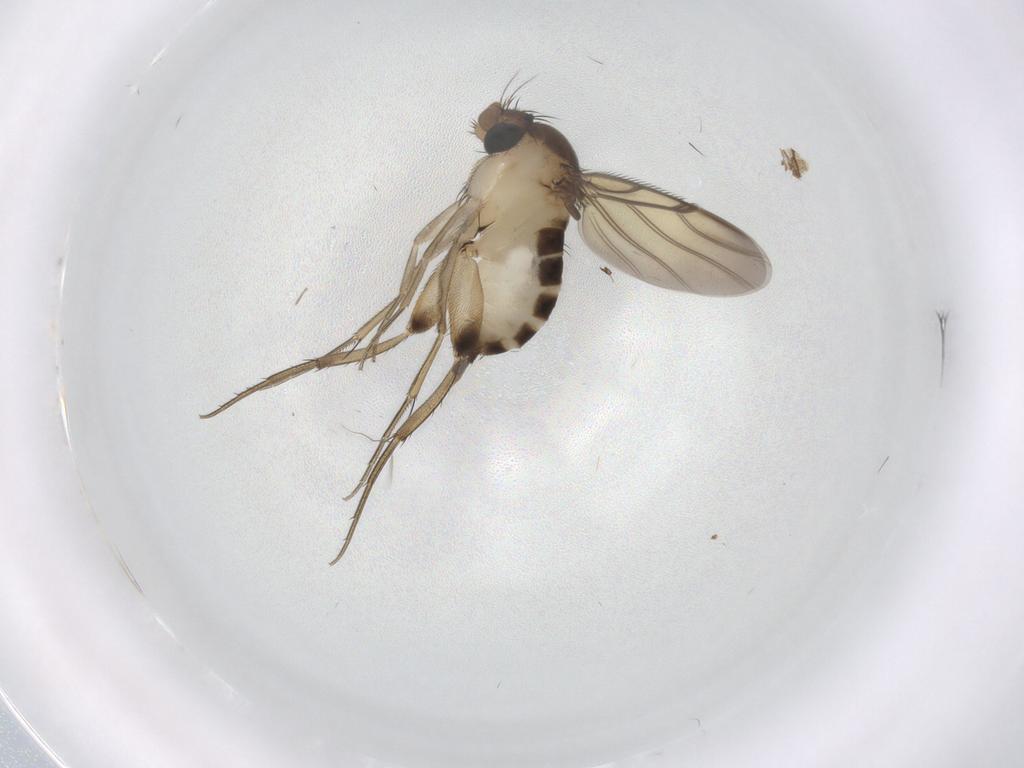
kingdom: Animalia
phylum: Arthropoda
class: Insecta
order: Diptera
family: Phoridae
